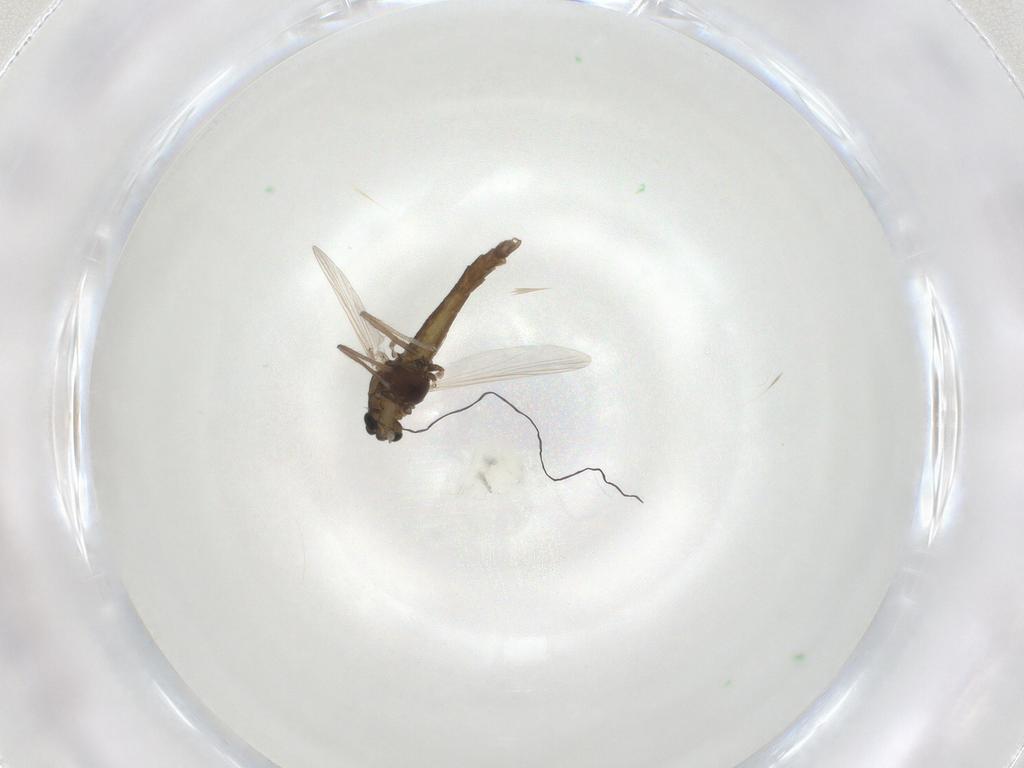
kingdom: Animalia
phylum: Arthropoda
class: Insecta
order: Diptera
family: Chironomidae
